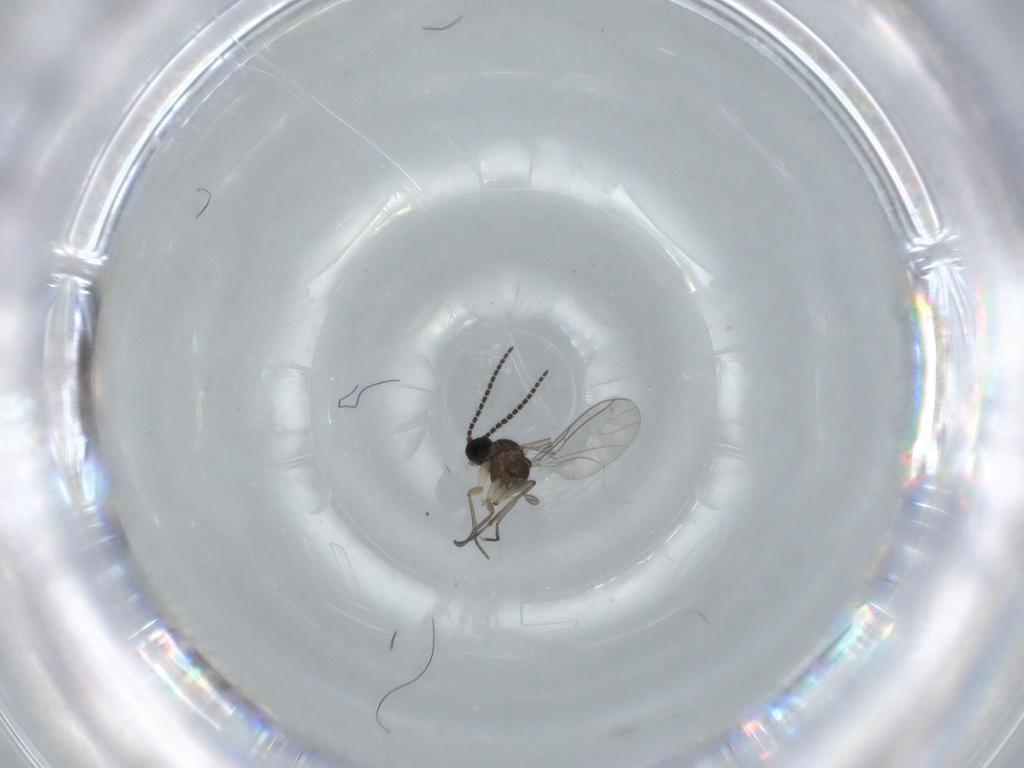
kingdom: Animalia
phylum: Arthropoda
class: Insecta
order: Diptera
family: Sciaridae
